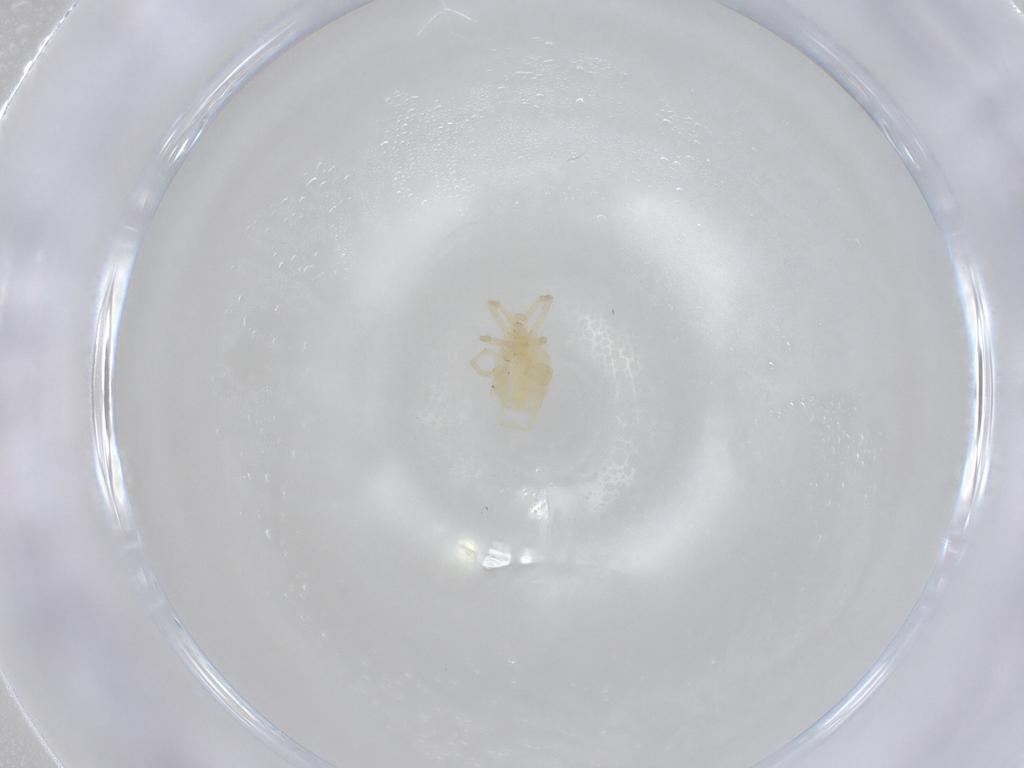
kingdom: Animalia
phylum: Arthropoda
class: Arachnida
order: Trombidiformes
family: Erythraeidae
